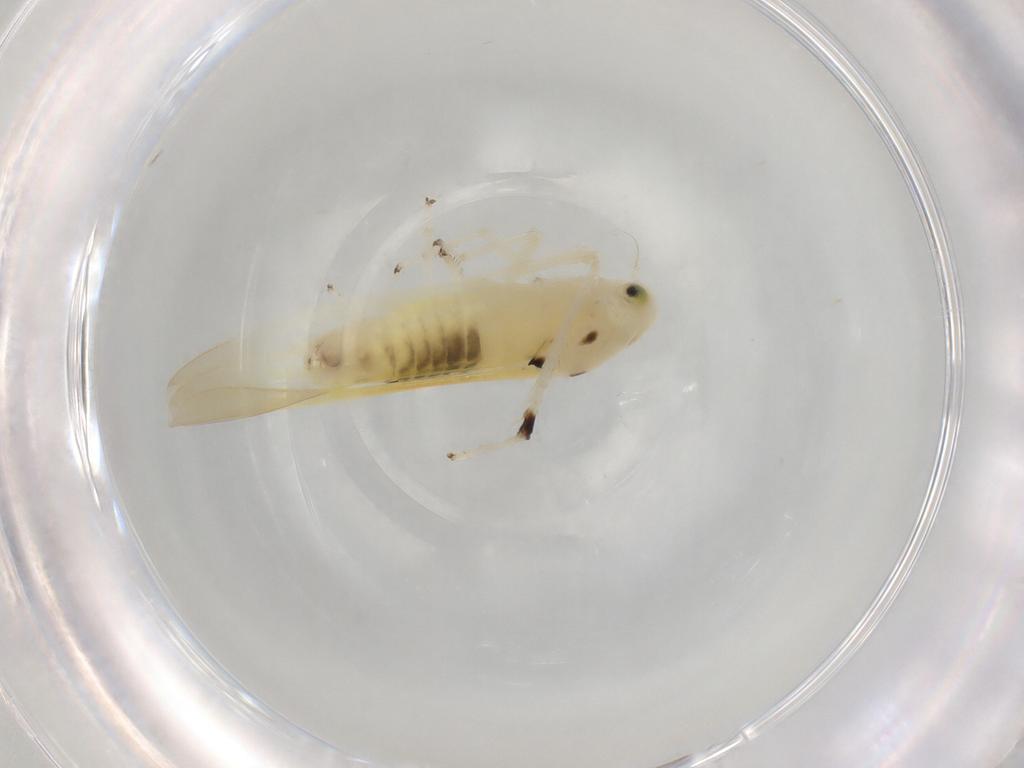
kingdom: Animalia
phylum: Arthropoda
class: Insecta
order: Hemiptera
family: Cicadellidae
